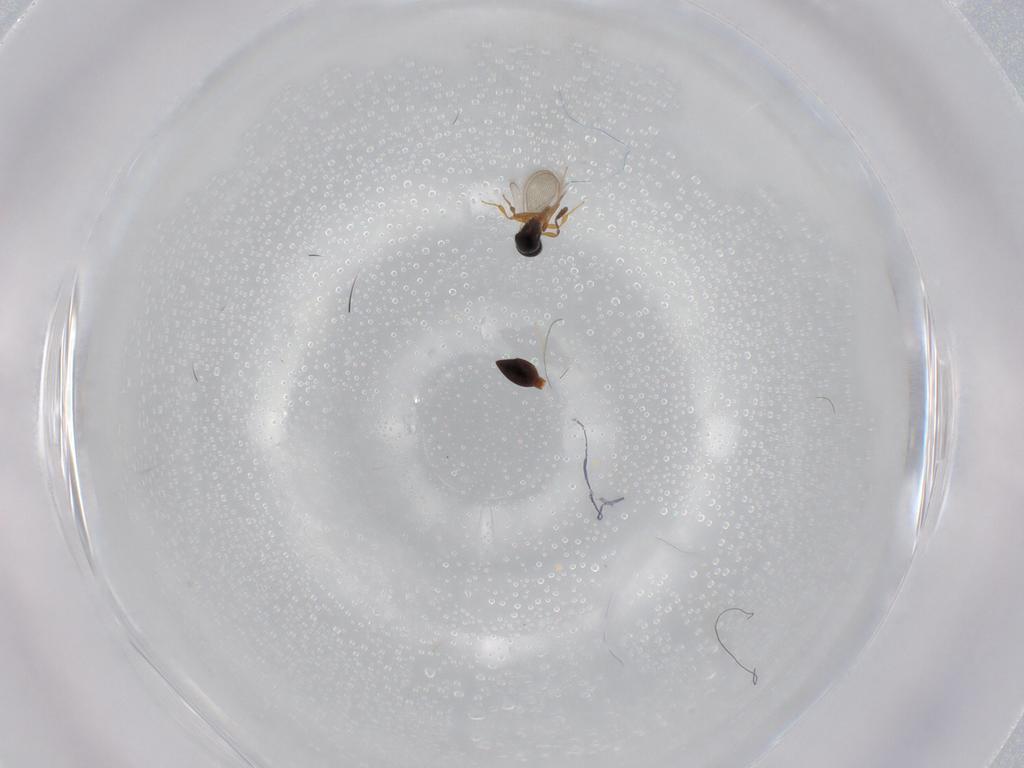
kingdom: Animalia
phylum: Arthropoda
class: Insecta
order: Hymenoptera
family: Platygastridae
